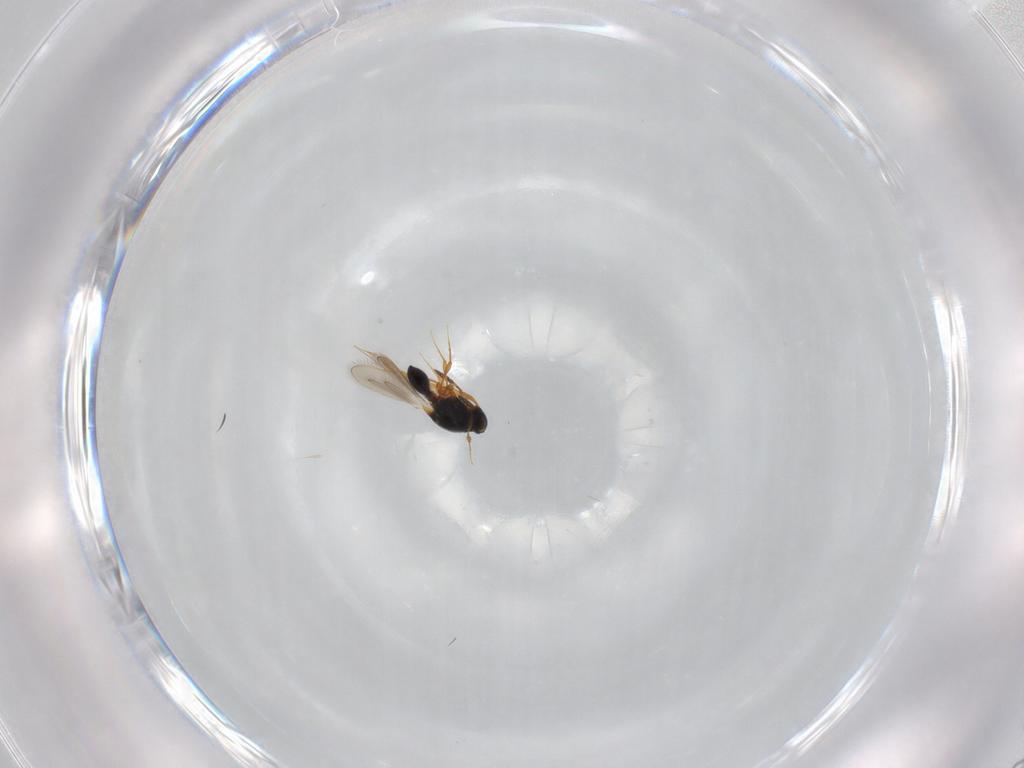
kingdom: Animalia
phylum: Arthropoda
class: Insecta
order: Hymenoptera
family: Platygastridae
